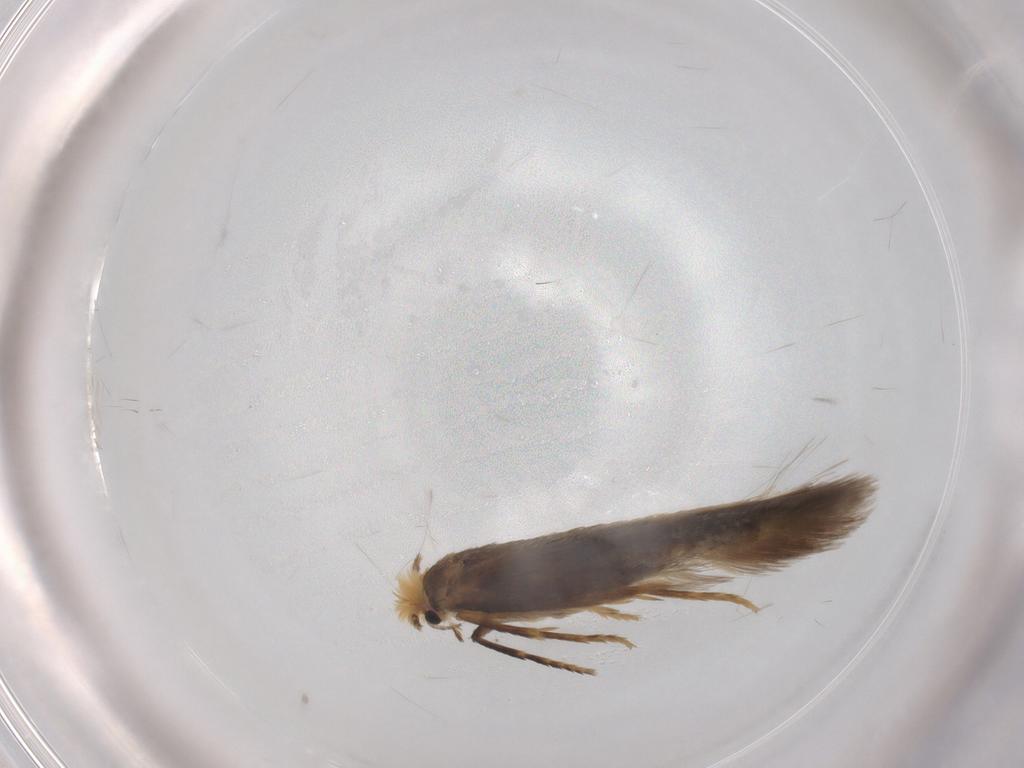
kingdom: Animalia
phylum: Arthropoda
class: Insecta
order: Lepidoptera
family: Nepticulidae
